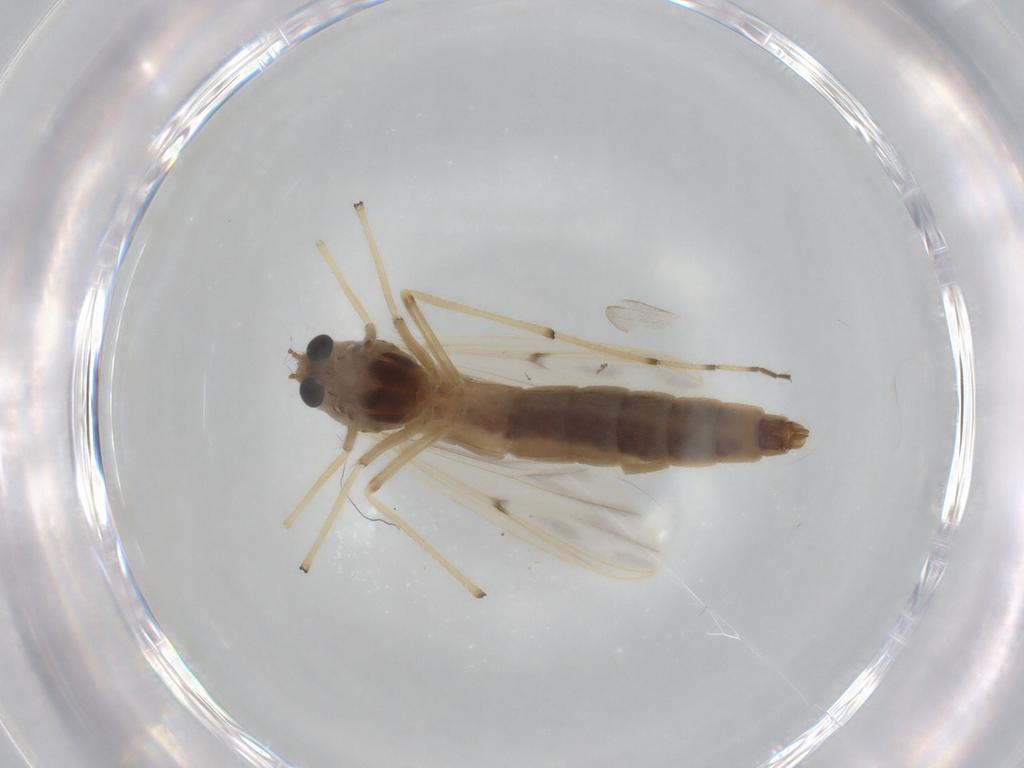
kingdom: Animalia
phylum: Arthropoda
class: Insecta
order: Diptera
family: Chironomidae
